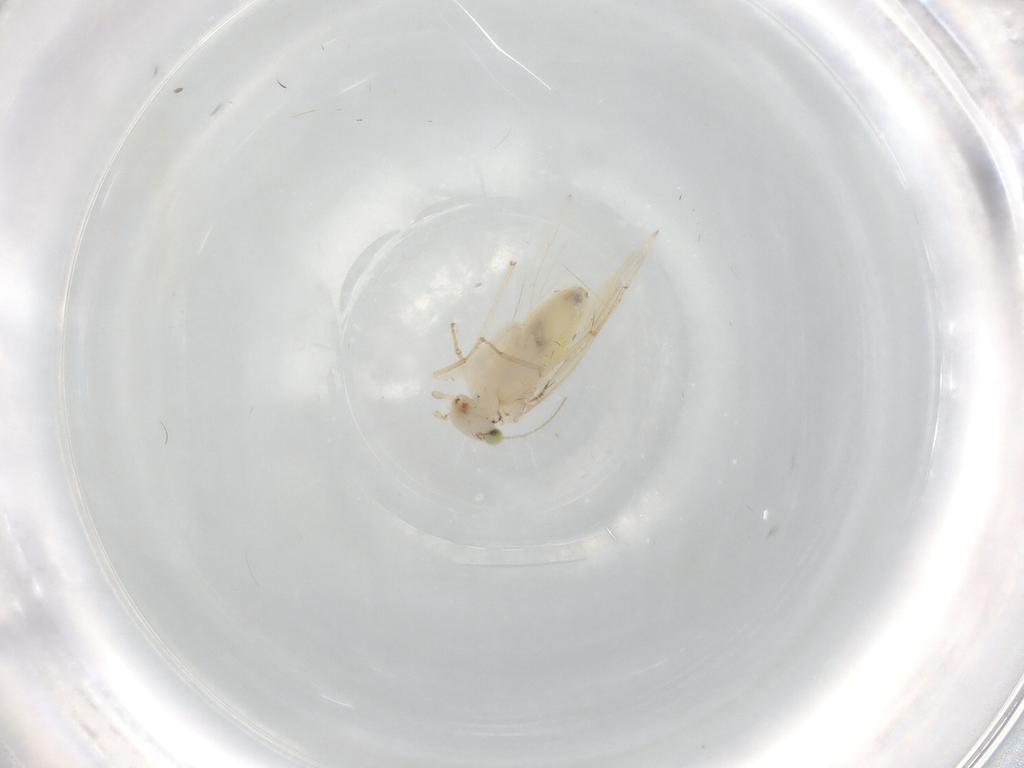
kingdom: Animalia
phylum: Arthropoda
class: Insecta
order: Psocodea
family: Lepidopsocidae
